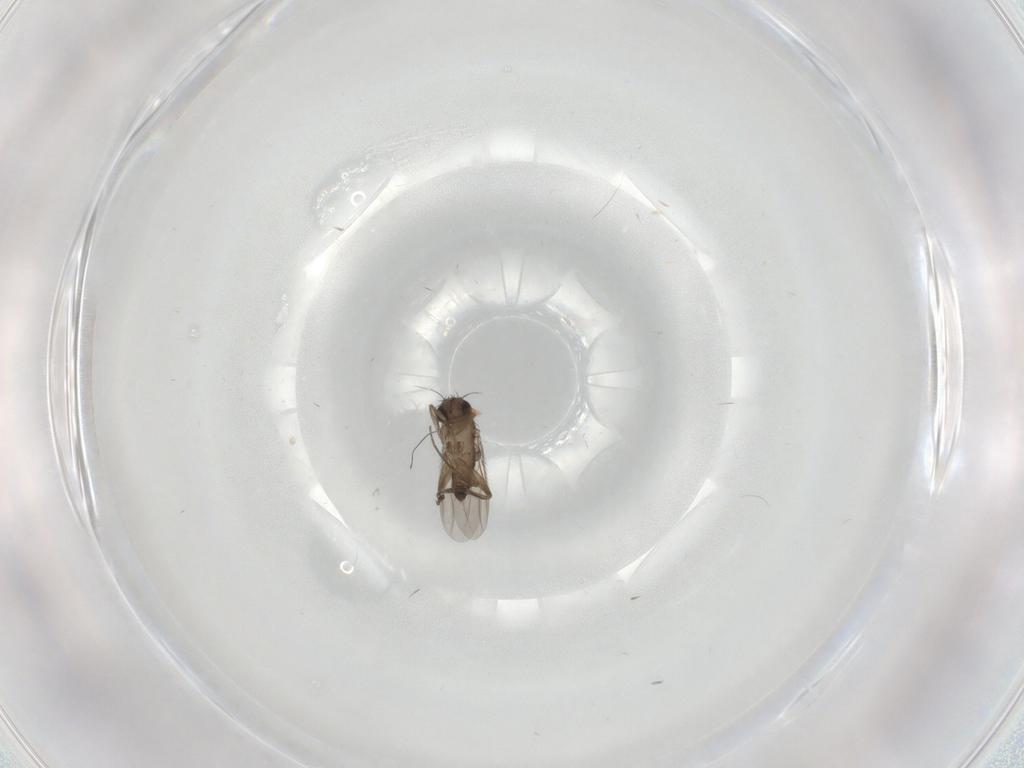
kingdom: Animalia
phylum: Arthropoda
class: Insecta
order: Diptera
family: Phoridae
